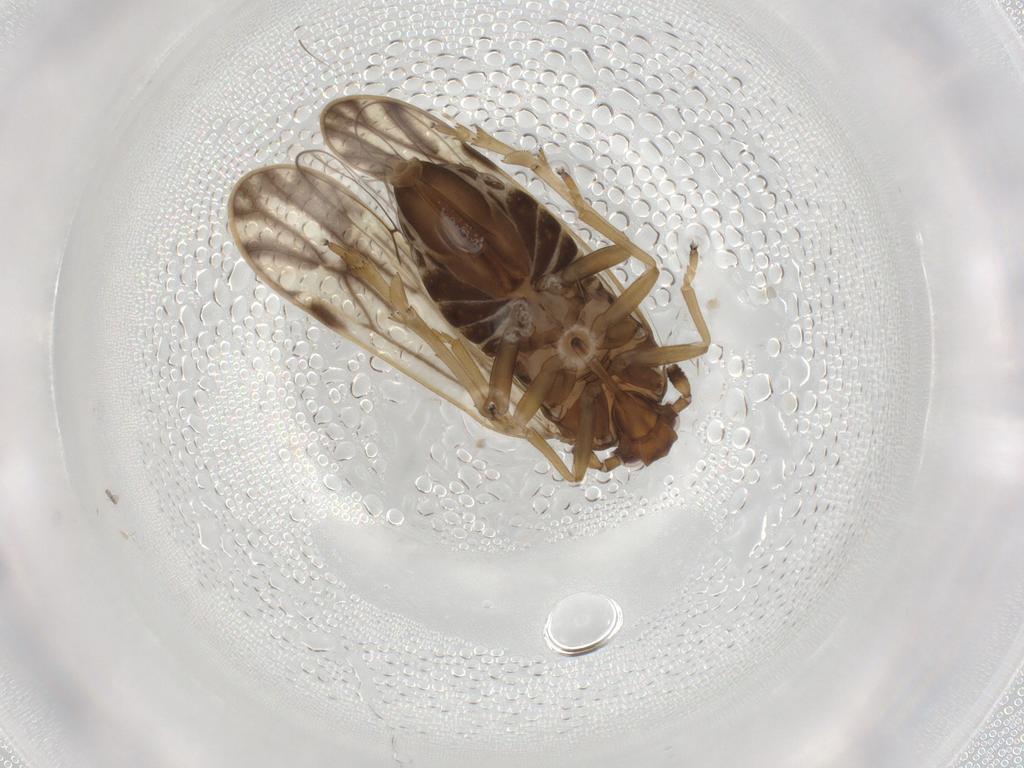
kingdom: Animalia
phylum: Arthropoda
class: Insecta
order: Hemiptera
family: Delphacidae
